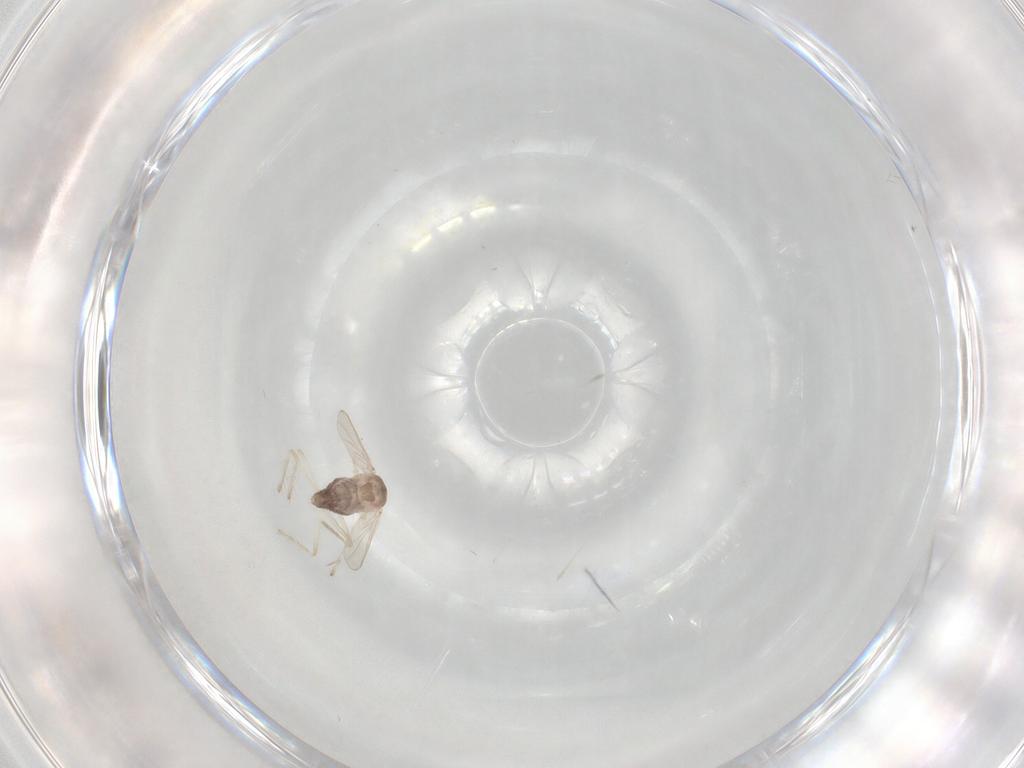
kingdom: Animalia
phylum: Arthropoda
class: Insecta
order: Diptera
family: Chironomidae
